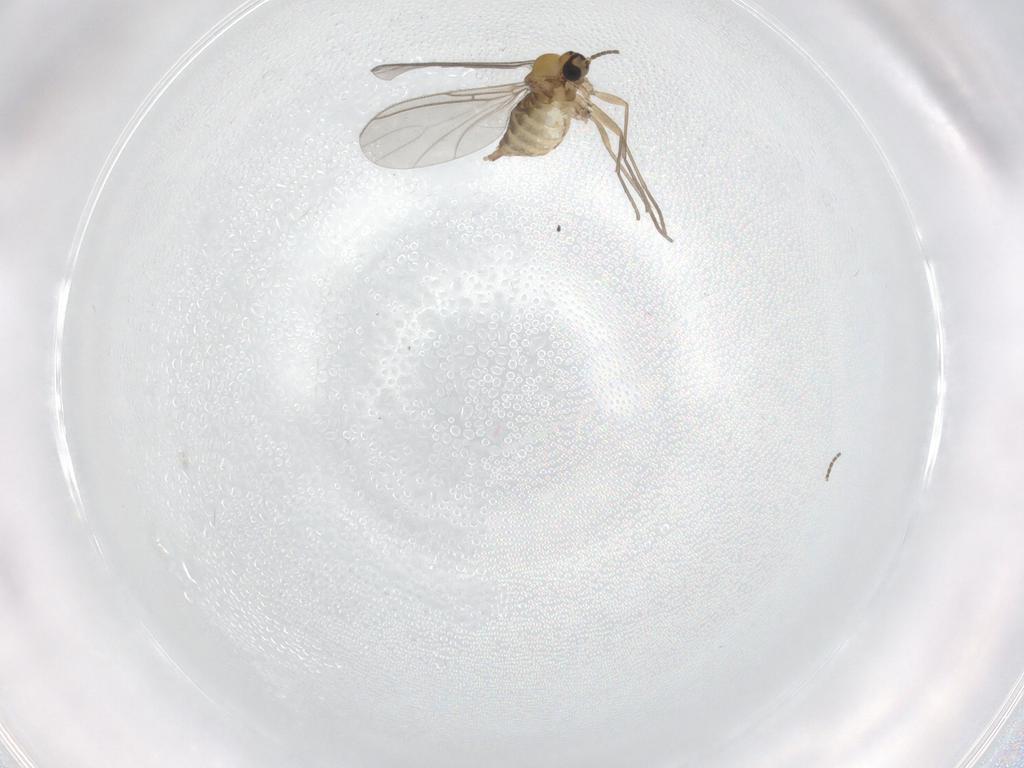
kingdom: Animalia
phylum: Arthropoda
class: Insecta
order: Diptera
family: Sciaridae
